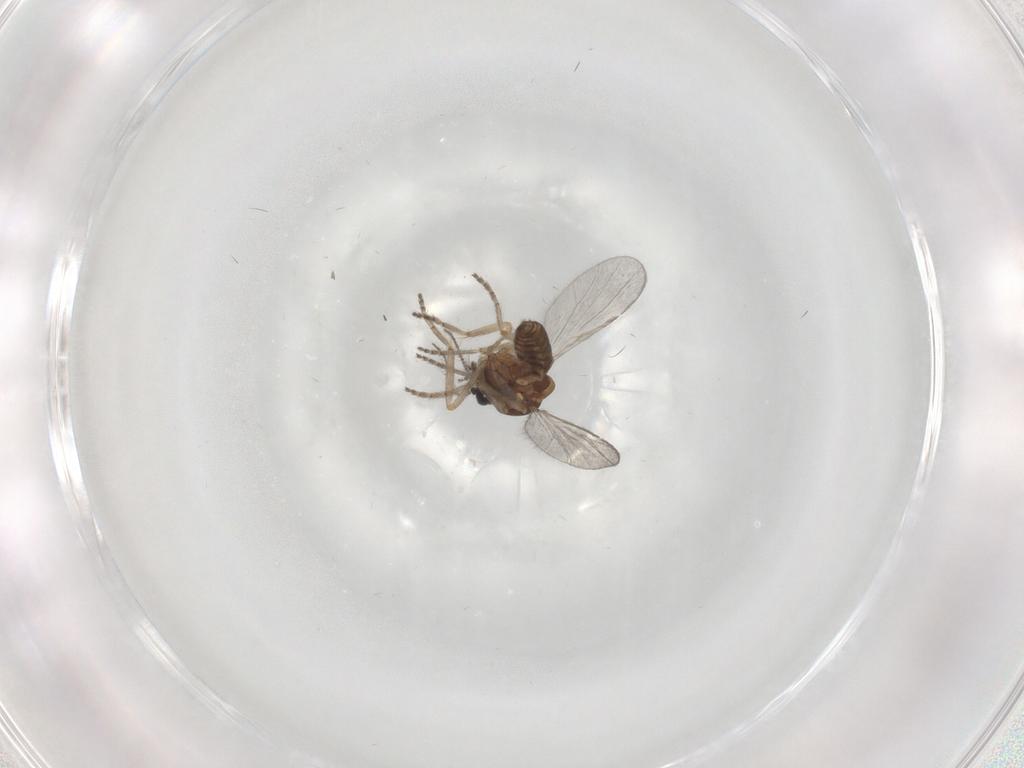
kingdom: Animalia
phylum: Arthropoda
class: Insecta
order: Diptera
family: Ceratopogonidae
